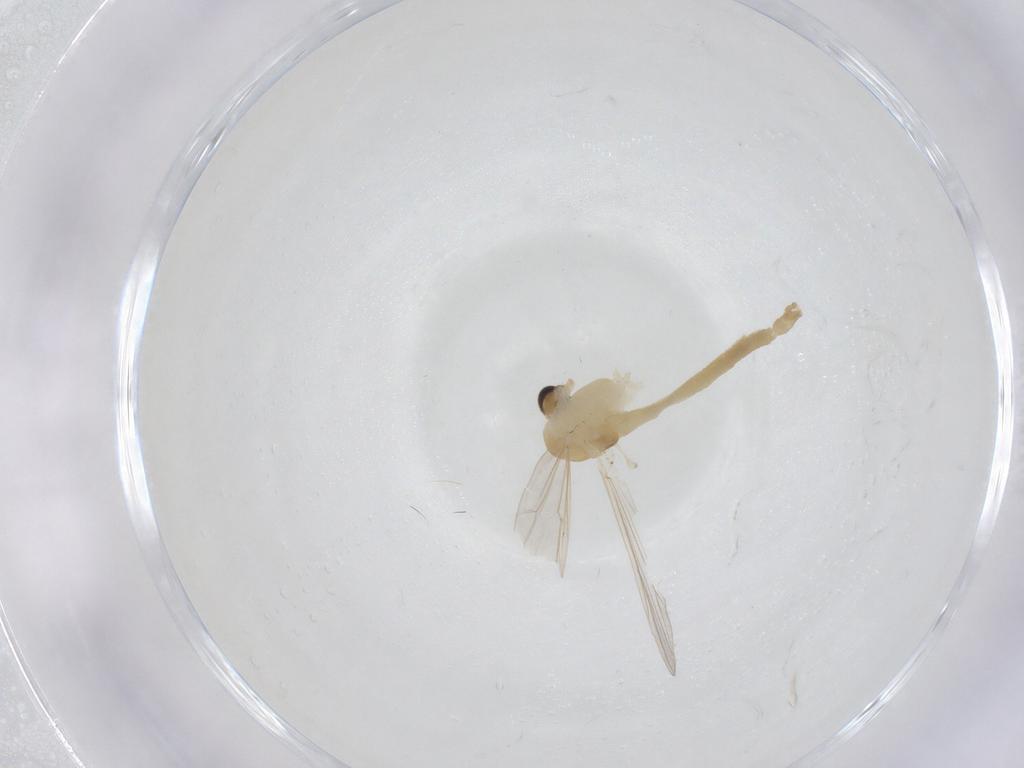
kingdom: Animalia
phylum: Arthropoda
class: Insecta
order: Diptera
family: Chironomidae
